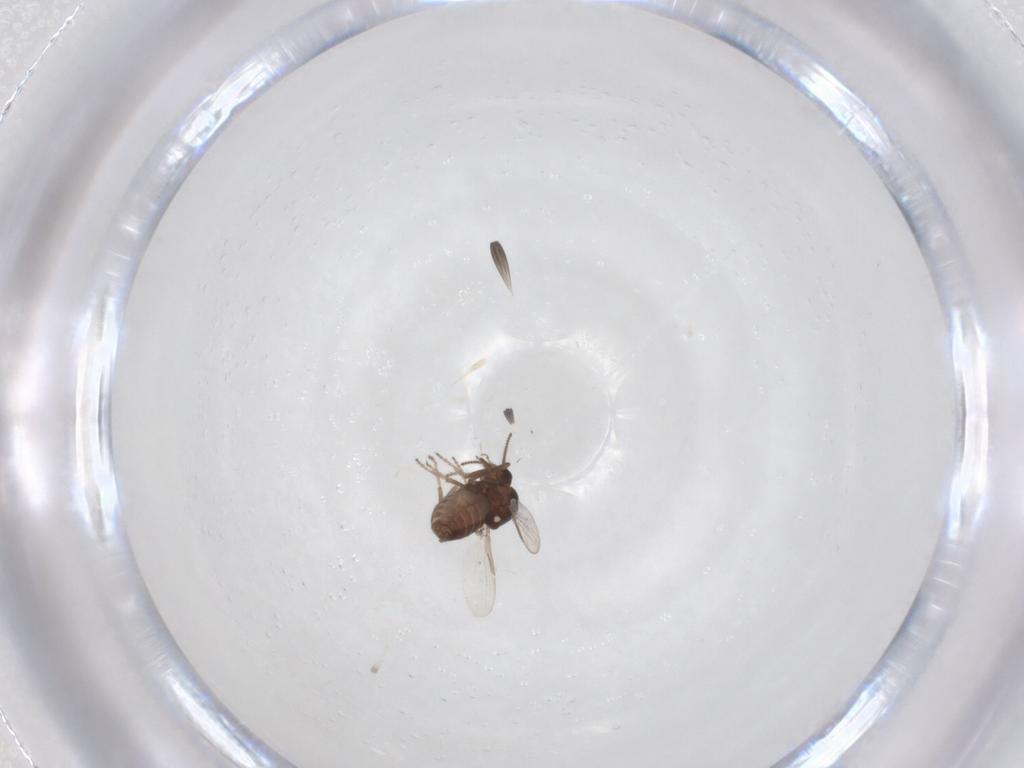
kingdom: Animalia
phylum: Arthropoda
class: Insecta
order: Diptera
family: Ceratopogonidae
